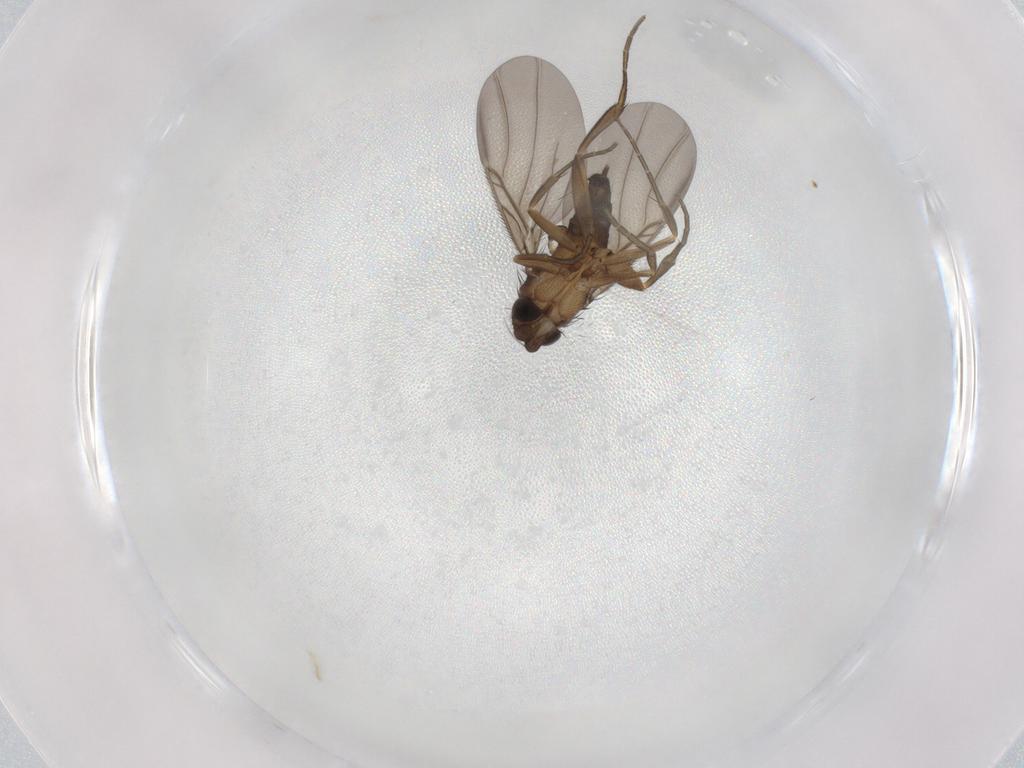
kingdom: Animalia
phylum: Arthropoda
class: Insecta
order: Diptera
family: Phoridae
